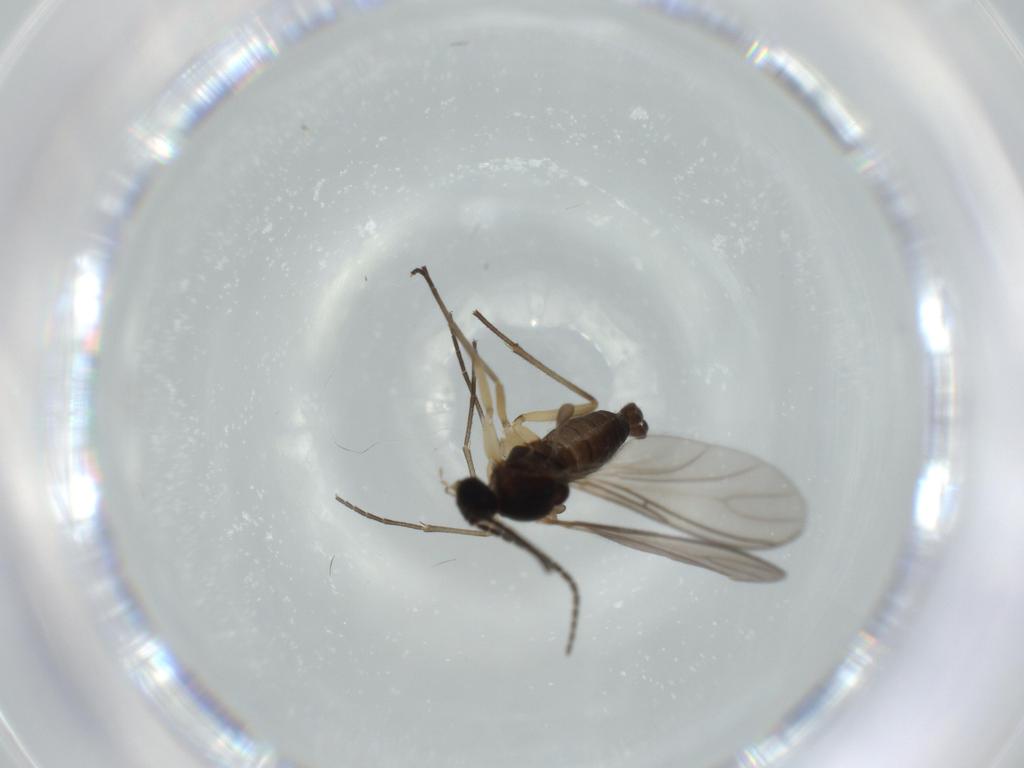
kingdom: Animalia
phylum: Arthropoda
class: Insecta
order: Diptera
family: Sciaridae
